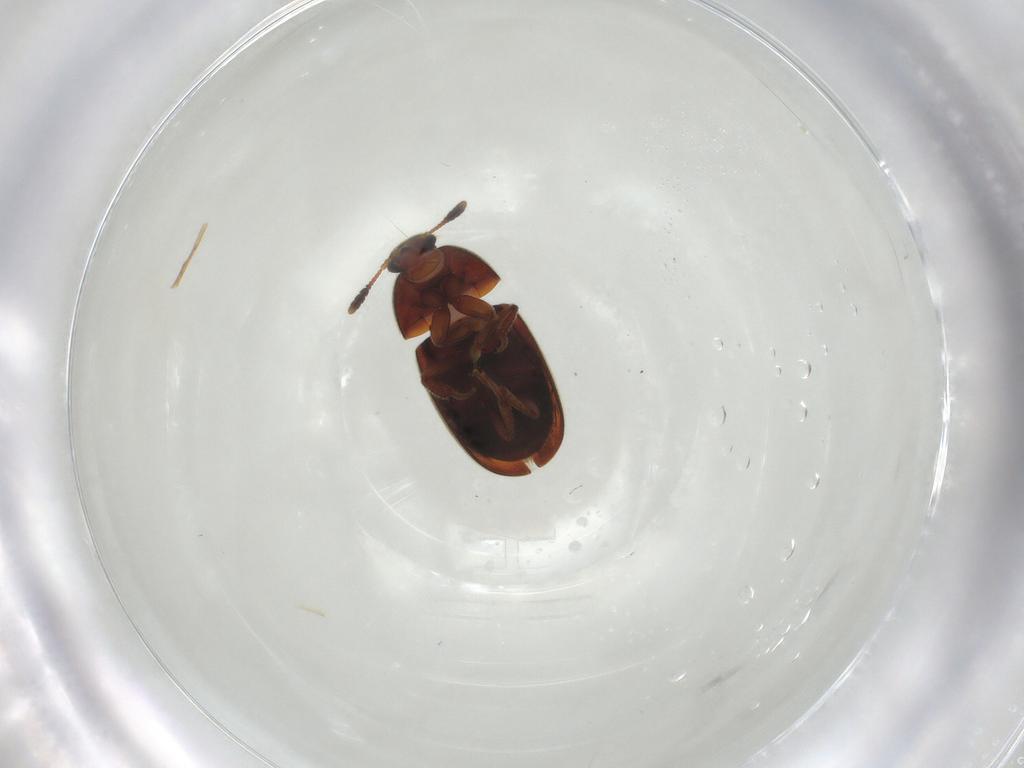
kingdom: Animalia
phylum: Arthropoda
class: Insecta
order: Coleoptera
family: Leiodidae
